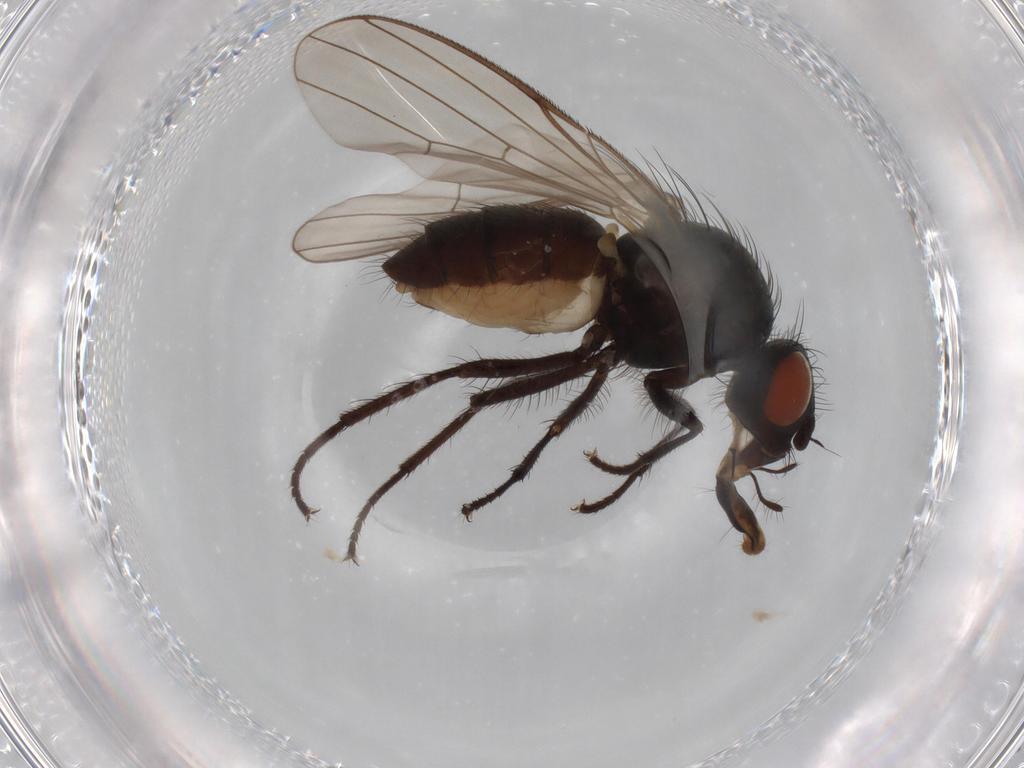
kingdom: Animalia
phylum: Arthropoda
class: Insecta
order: Diptera
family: Anthomyiidae
